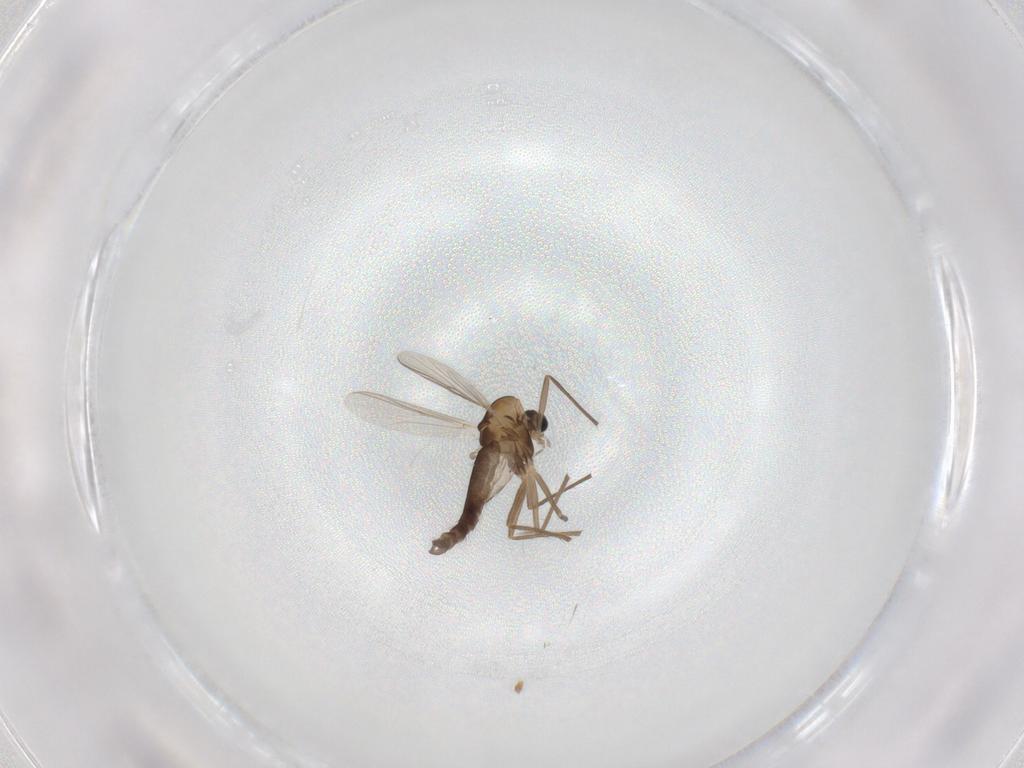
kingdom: Animalia
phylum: Arthropoda
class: Insecta
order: Diptera
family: Chironomidae
